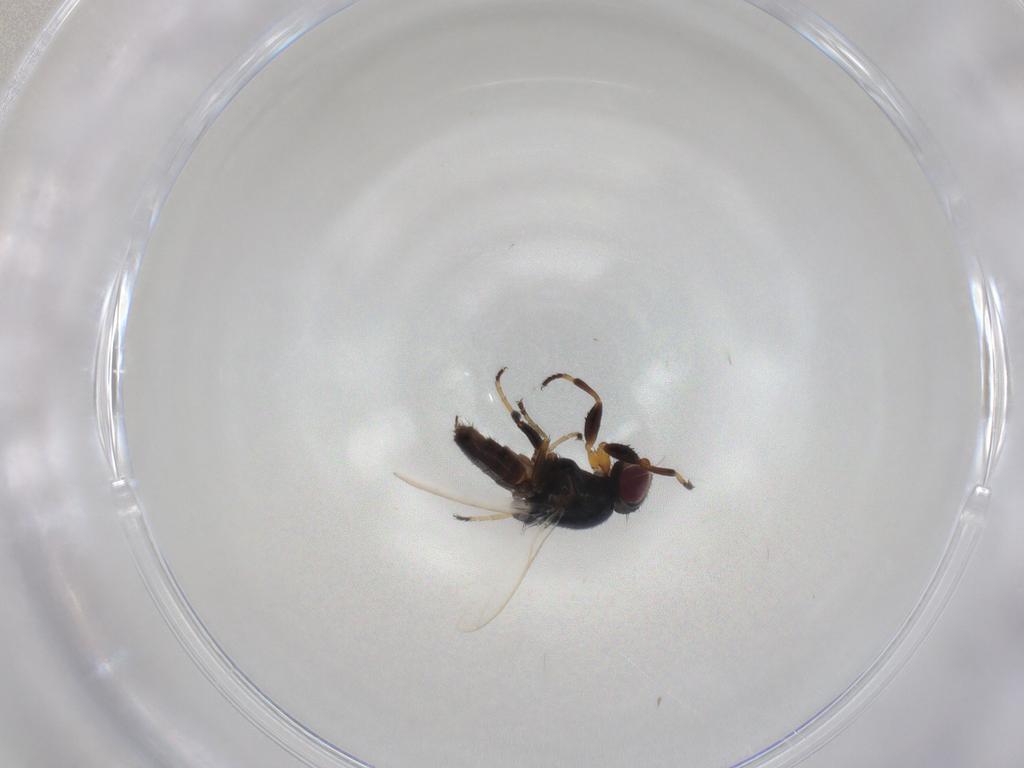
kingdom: Animalia
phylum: Arthropoda
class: Insecta
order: Diptera
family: Chloropidae
